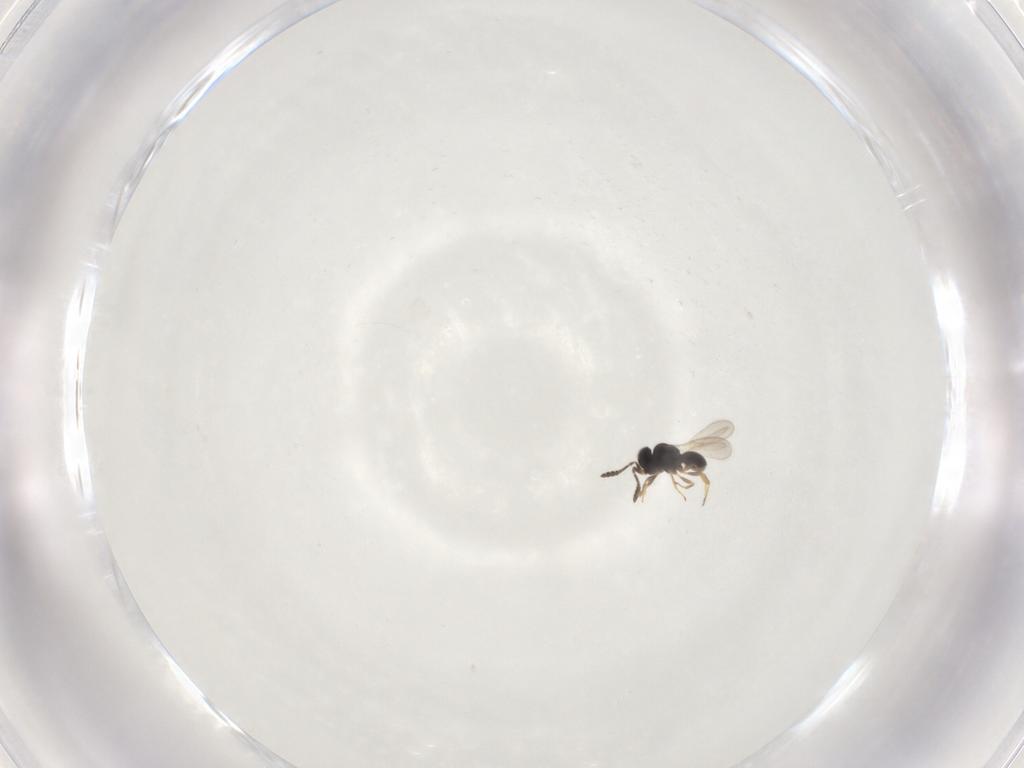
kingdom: Animalia
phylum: Arthropoda
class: Insecta
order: Hymenoptera
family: Scelionidae
